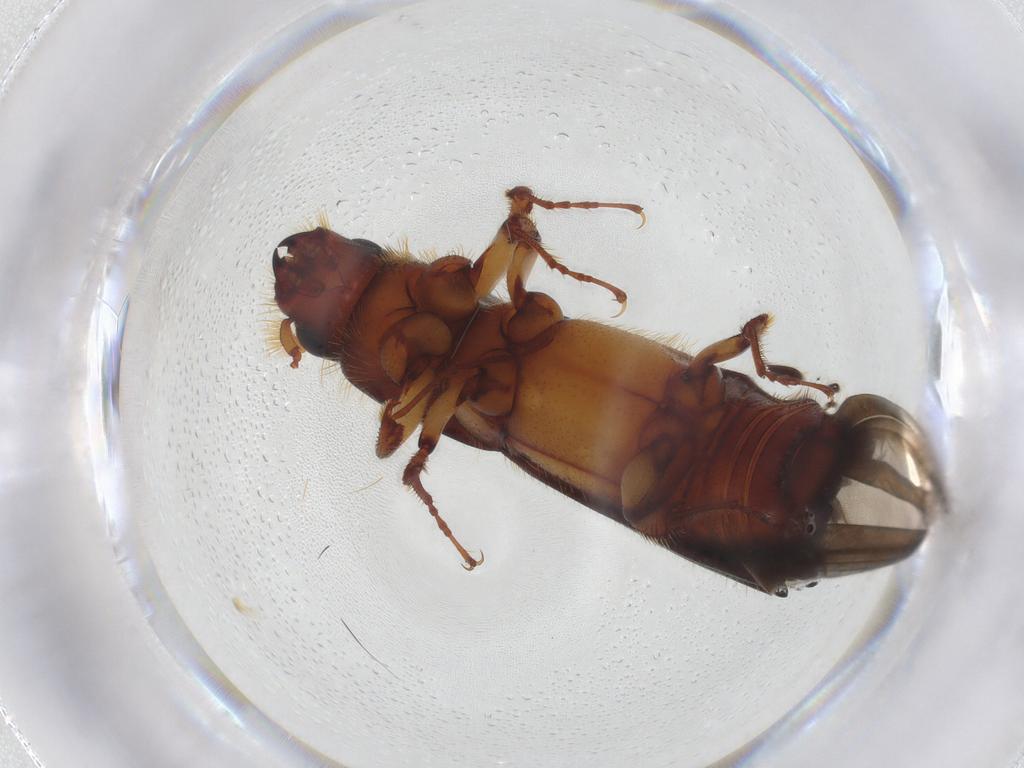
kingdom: Animalia
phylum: Arthropoda
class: Insecta
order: Coleoptera
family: Curculionidae
